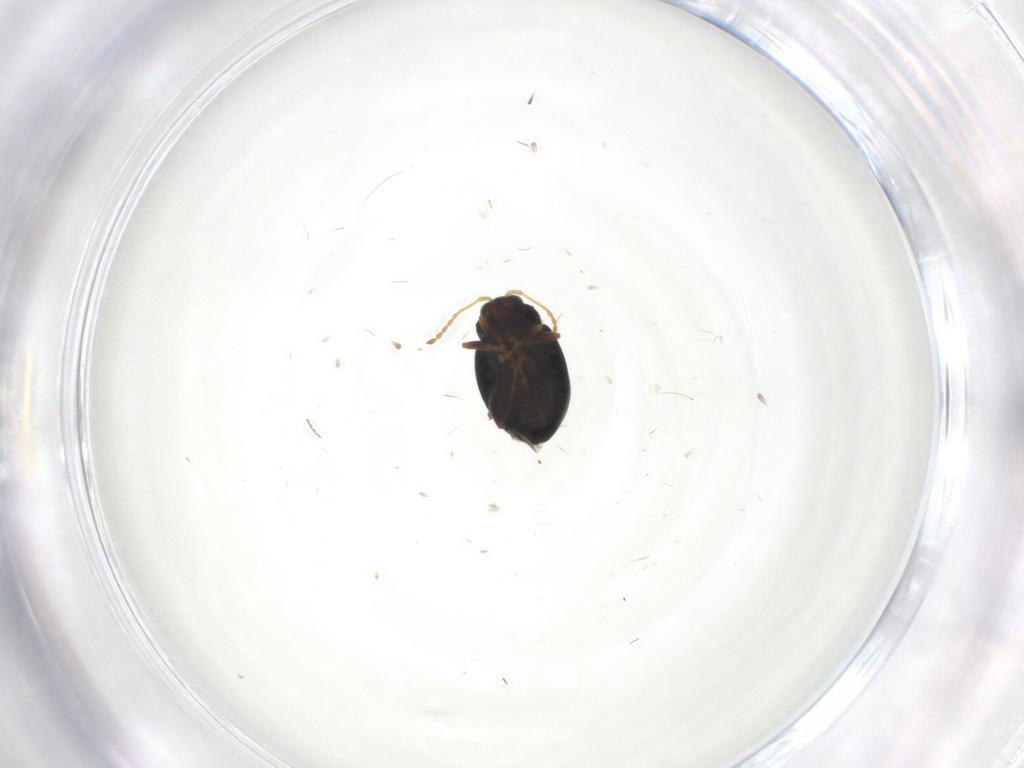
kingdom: Animalia
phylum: Arthropoda
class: Insecta
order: Coleoptera
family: Chrysomelidae
